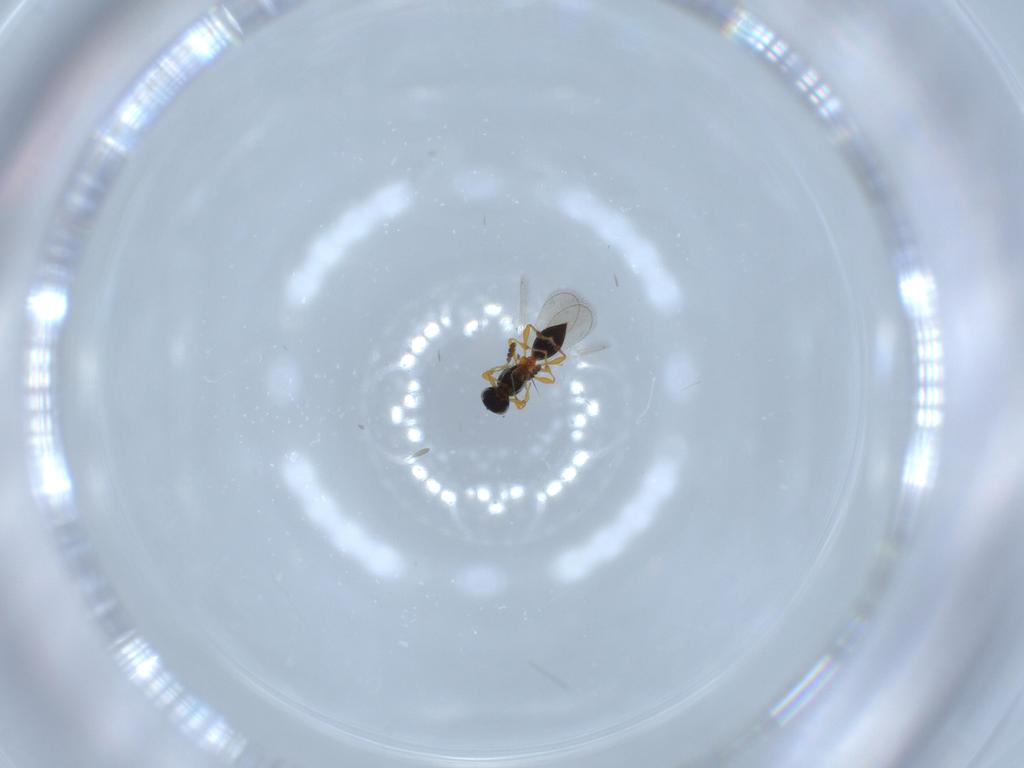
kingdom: Animalia
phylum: Arthropoda
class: Insecta
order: Hymenoptera
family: Platygastridae
